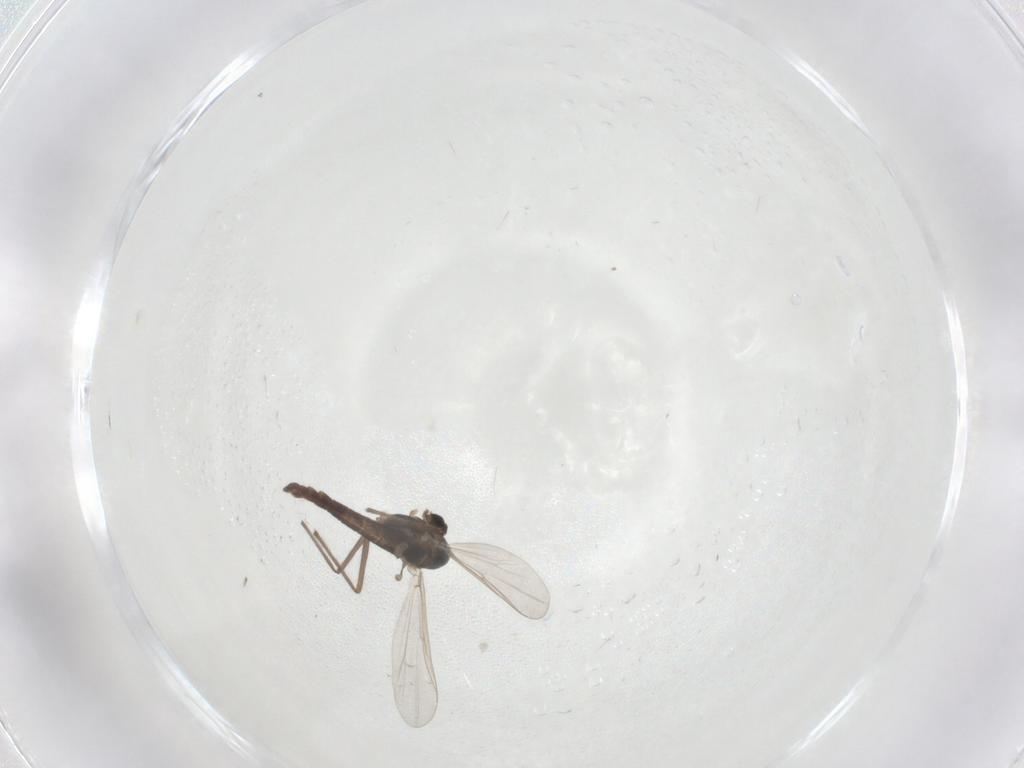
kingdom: Animalia
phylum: Arthropoda
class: Insecta
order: Diptera
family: Chironomidae
